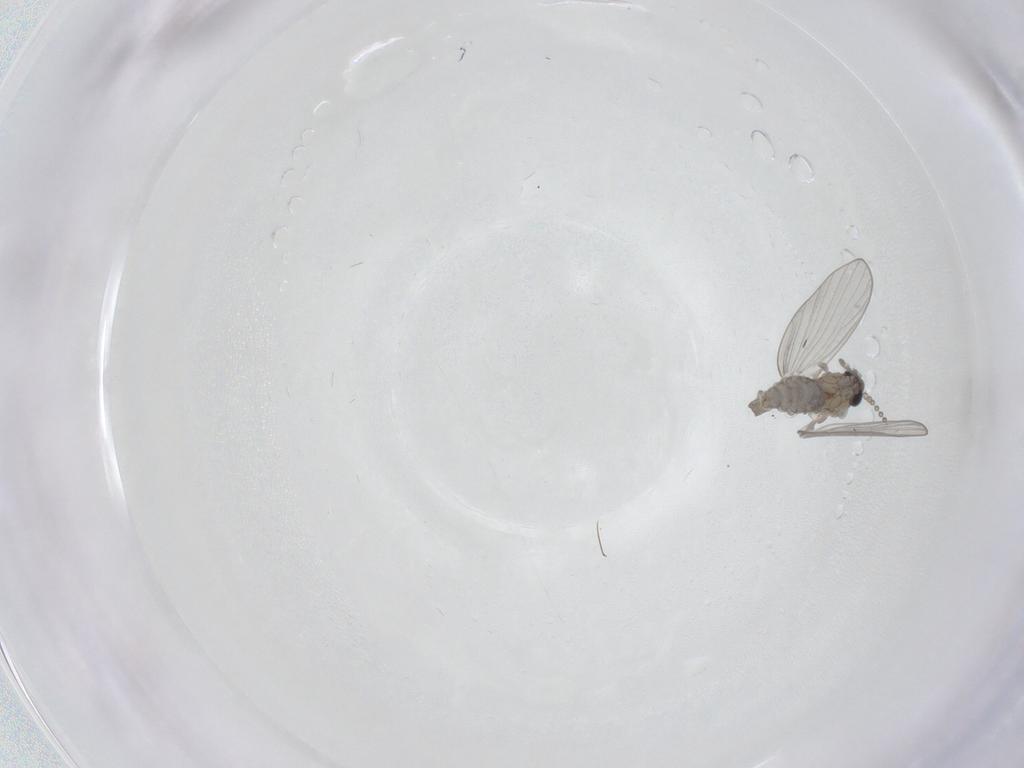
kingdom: Animalia
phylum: Arthropoda
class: Insecta
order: Diptera
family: Psychodidae
